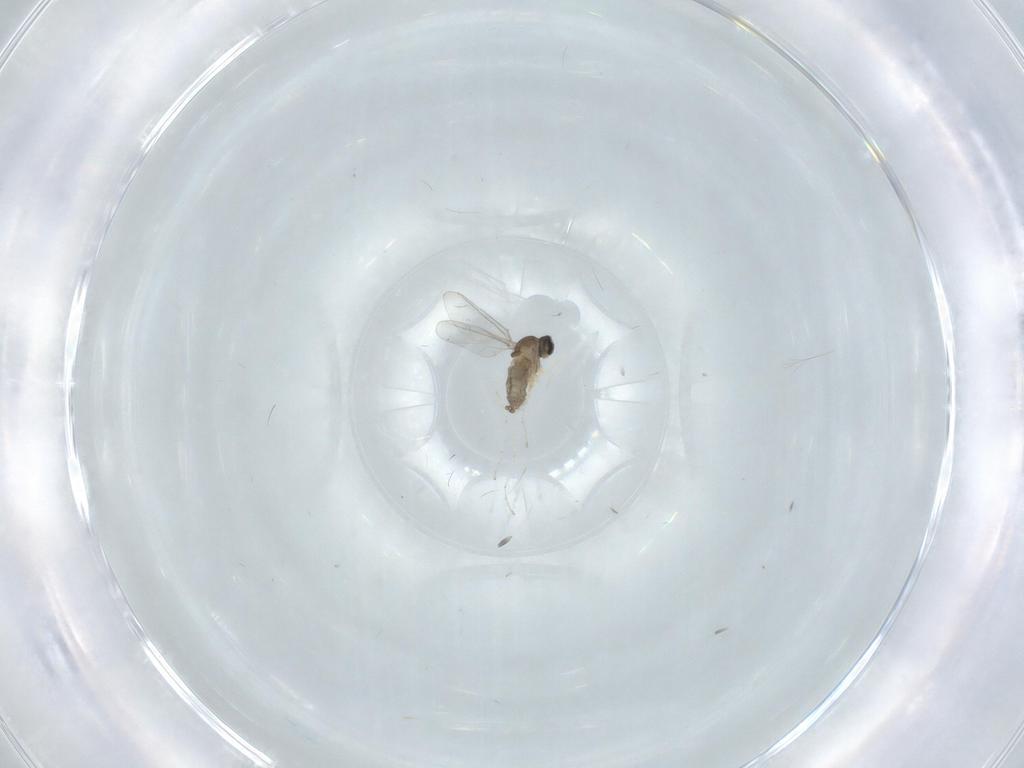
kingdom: Animalia
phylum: Arthropoda
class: Insecta
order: Diptera
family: Cecidomyiidae
